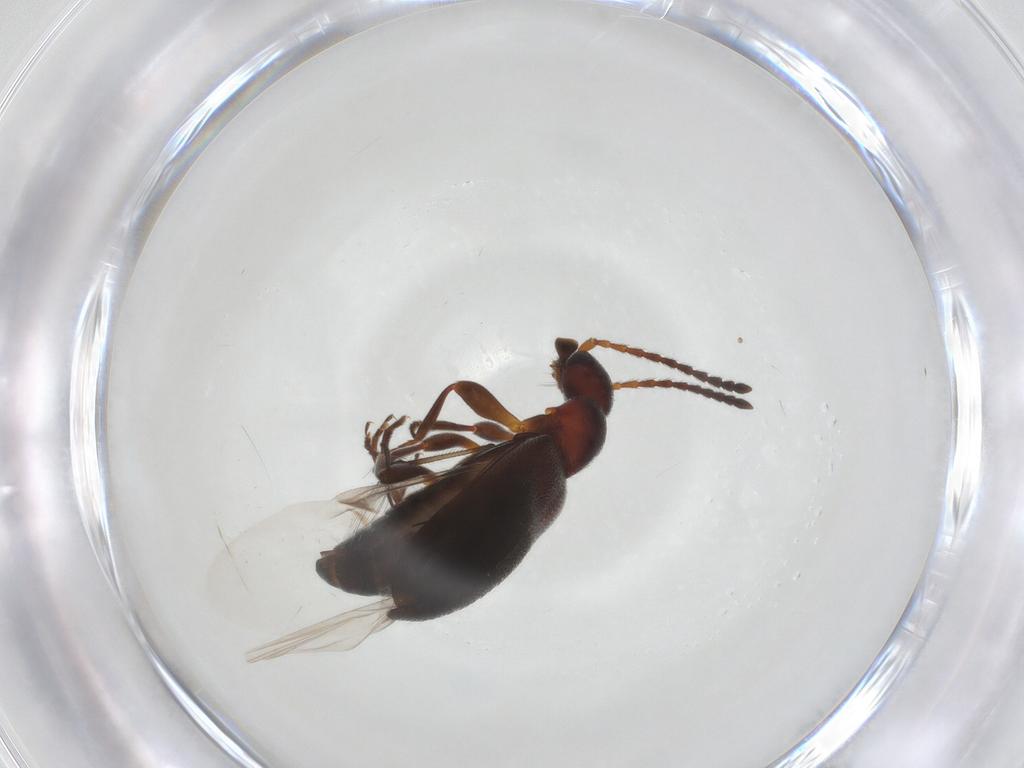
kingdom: Animalia
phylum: Arthropoda
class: Insecta
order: Coleoptera
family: Anthicidae
